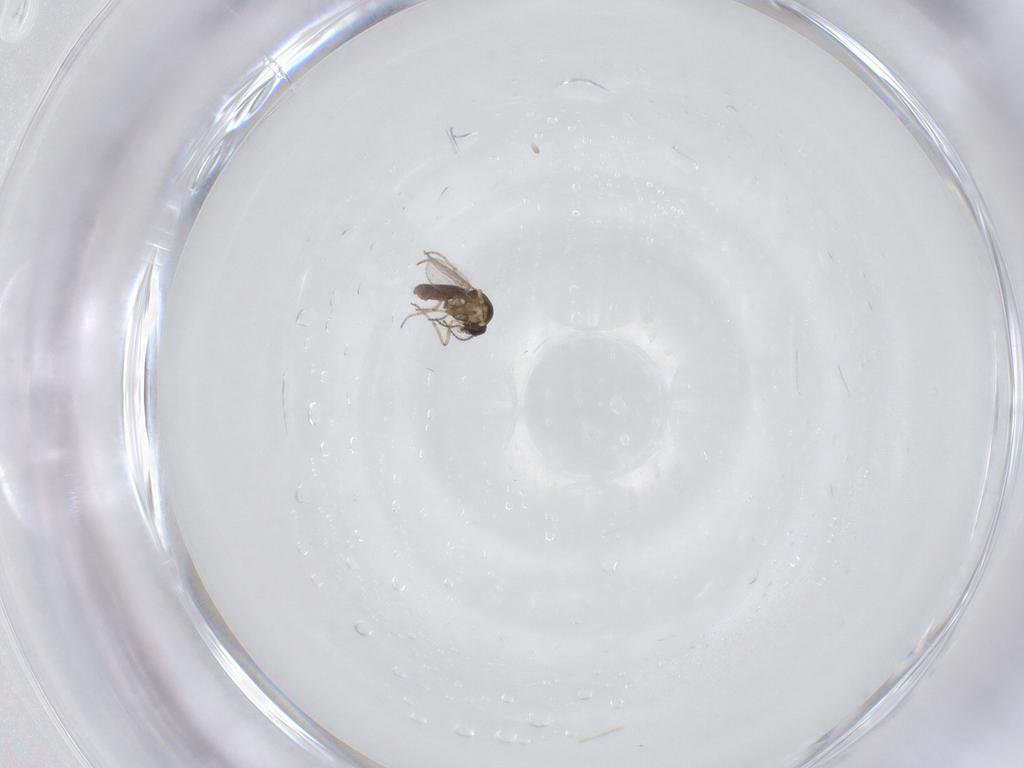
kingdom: Animalia
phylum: Arthropoda
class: Insecta
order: Diptera
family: Ceratopogonidae
